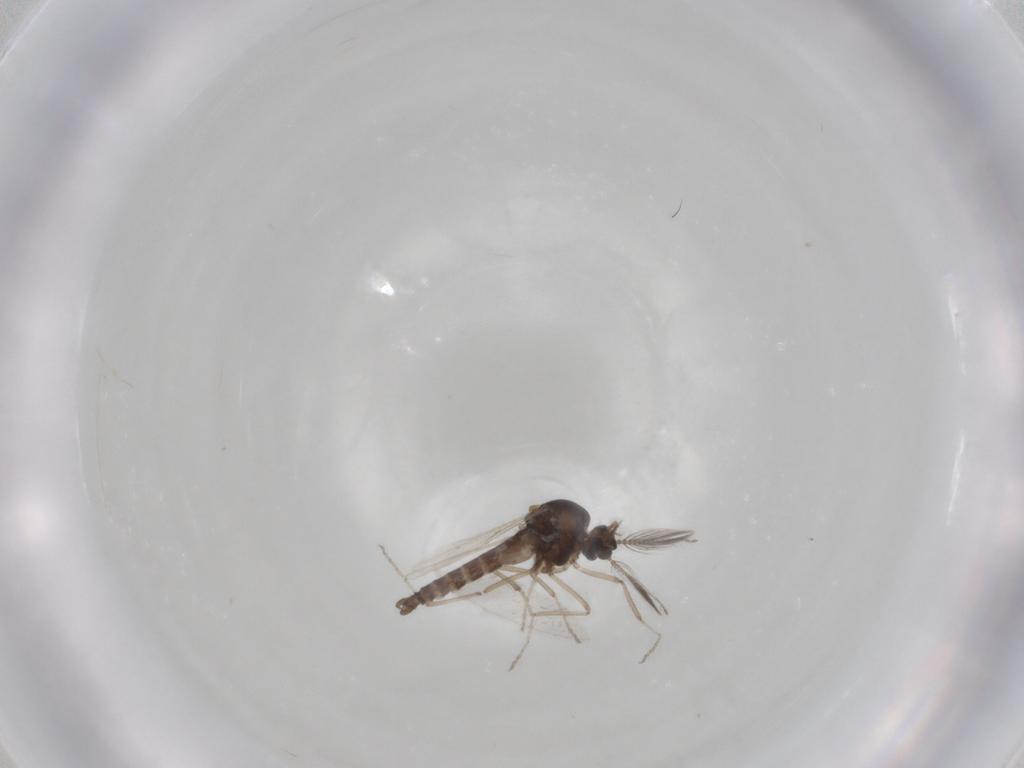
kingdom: Animalia
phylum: Arthropoda
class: Insecta
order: Diptera
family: Ceratopogonidae
